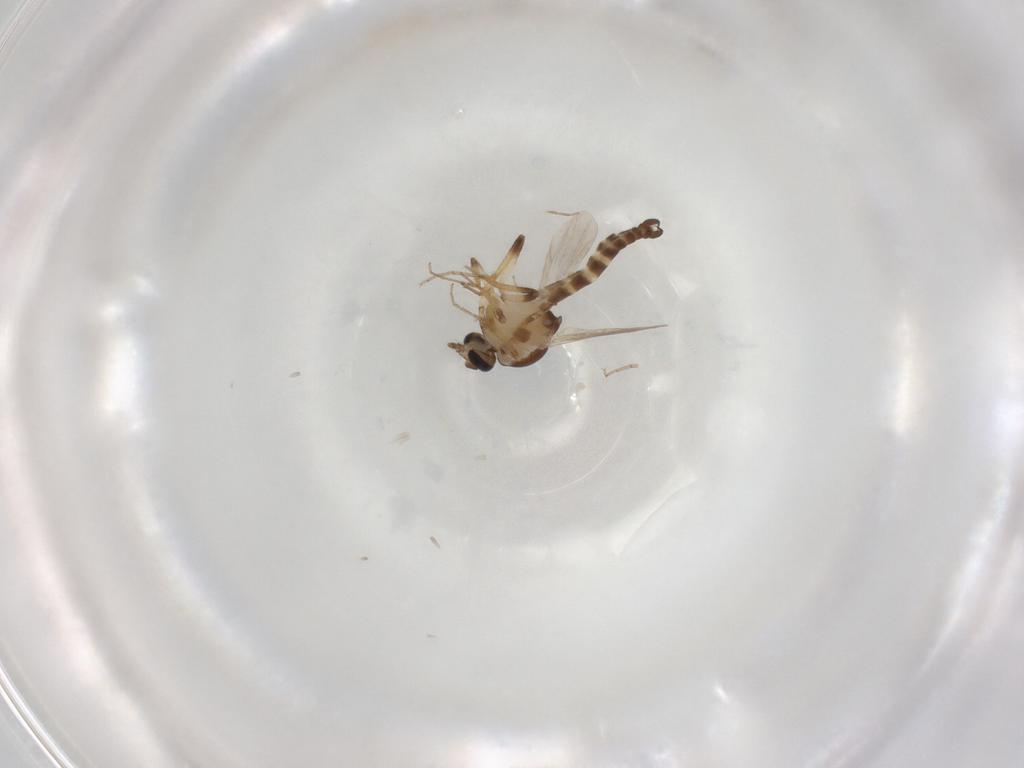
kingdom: Animalia
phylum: Arthropoda
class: Insecta
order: Diptera
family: Ceratopogonidae
